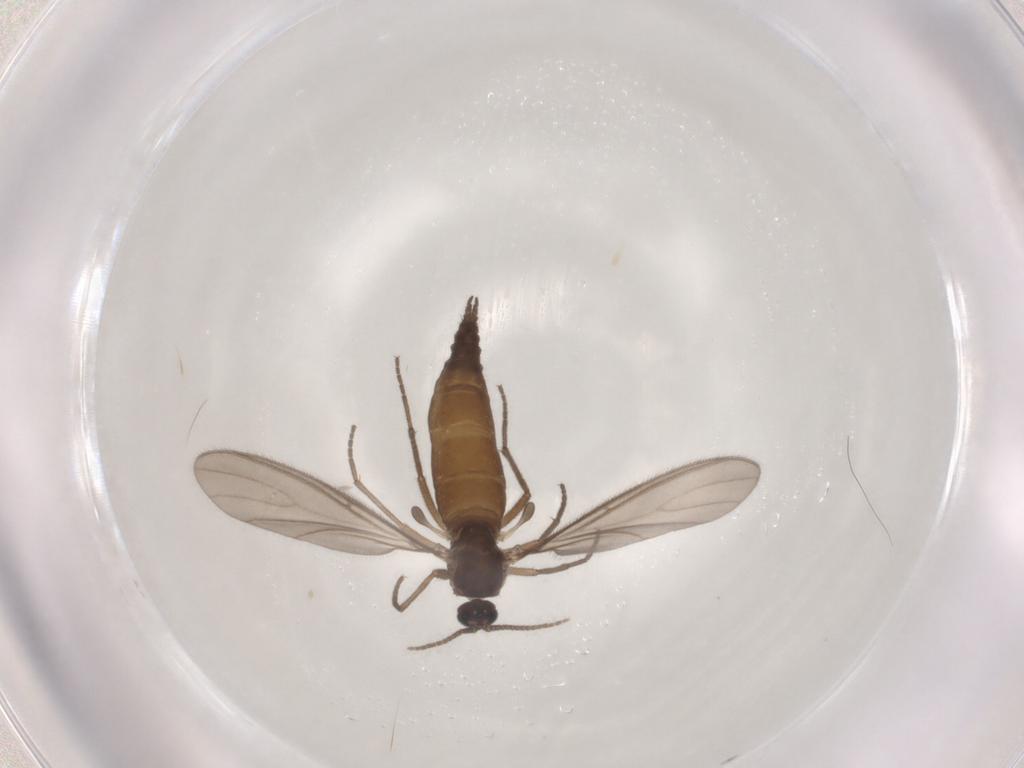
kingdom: Animalia
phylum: Arthropoda
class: Insecta
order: Diptera
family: Sciaridae
